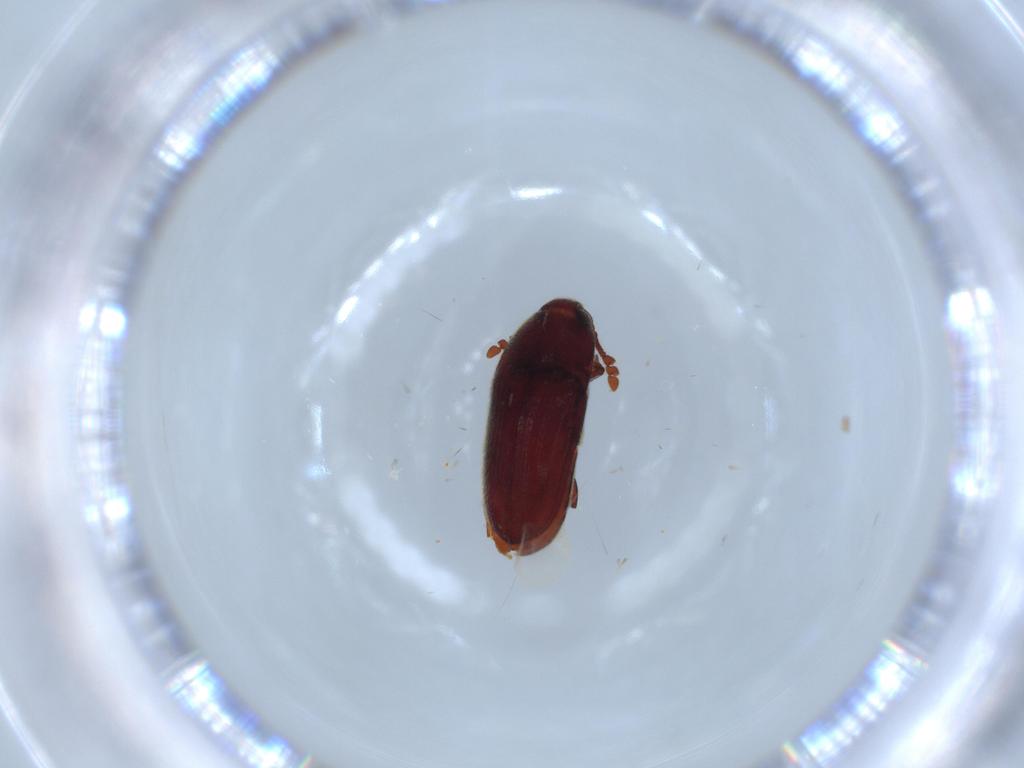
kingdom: Animalia
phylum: Arthropoda
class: Insecta
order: Coleoptera
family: Throscidae
